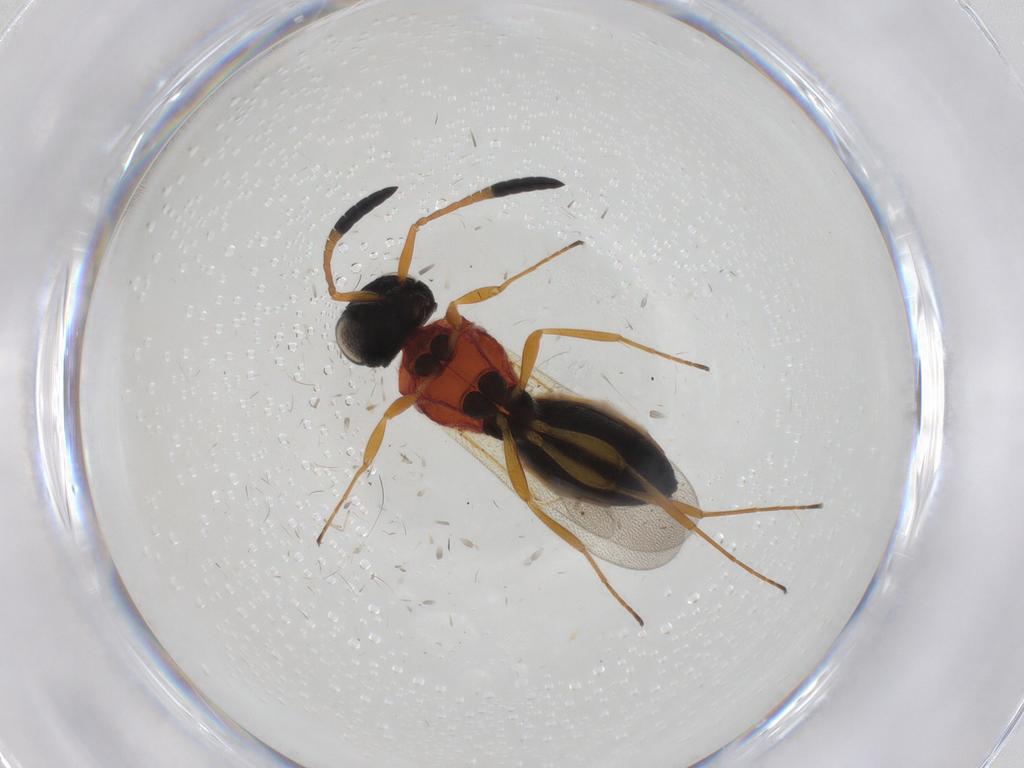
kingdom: Animalia
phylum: Arthropoda
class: Insecta
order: Hymenoptera
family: Scelionidae
